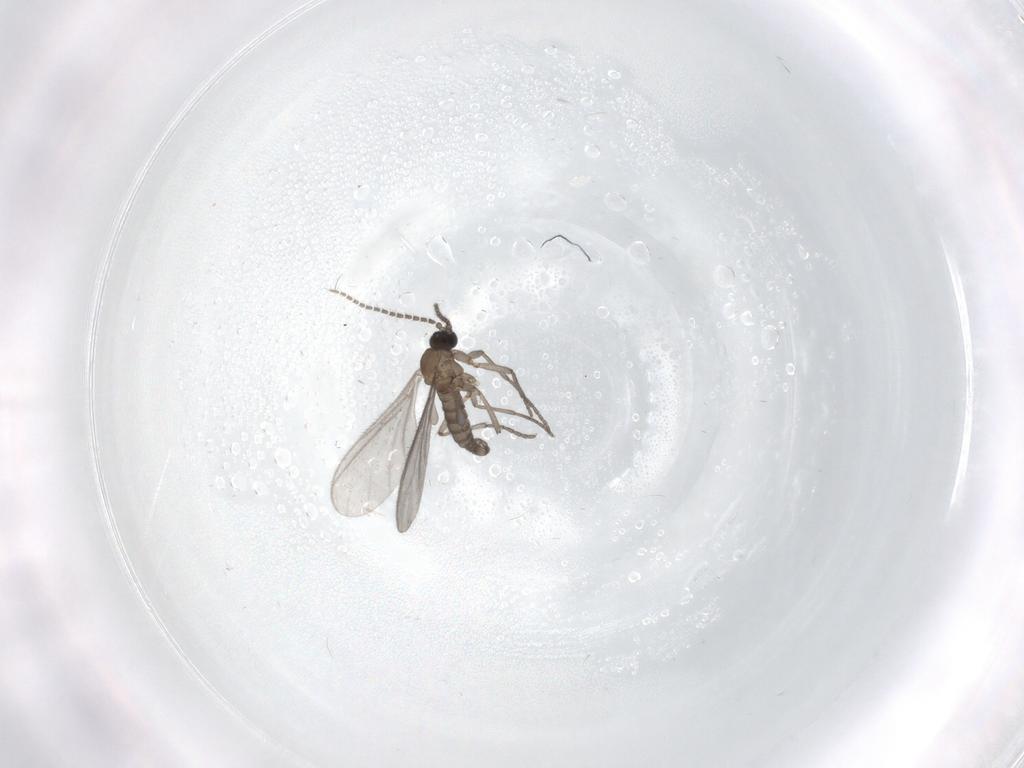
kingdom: Animalia
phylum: Arthropoda
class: Insecta
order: Diptera
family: Sciaridae
